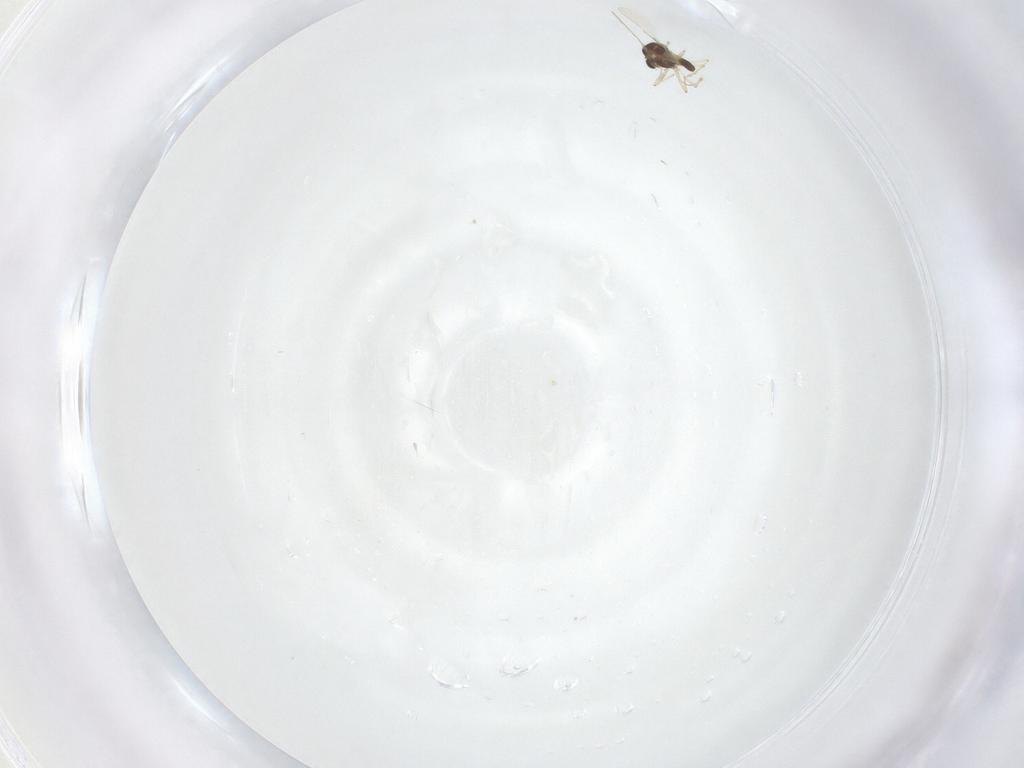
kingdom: Animalia
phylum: Arthropoda
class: Insecta
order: Diptera
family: Chironomidae
